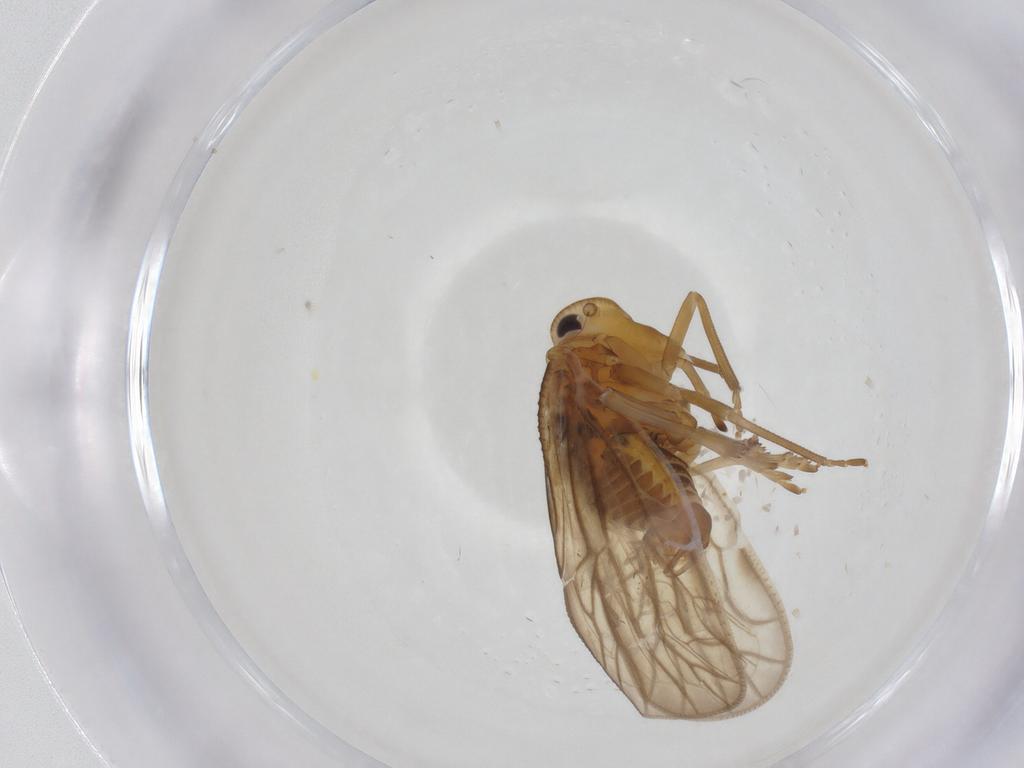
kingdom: Animalia
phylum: Arthropoda
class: Insecta
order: Hemiptera
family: Meenoplidae
